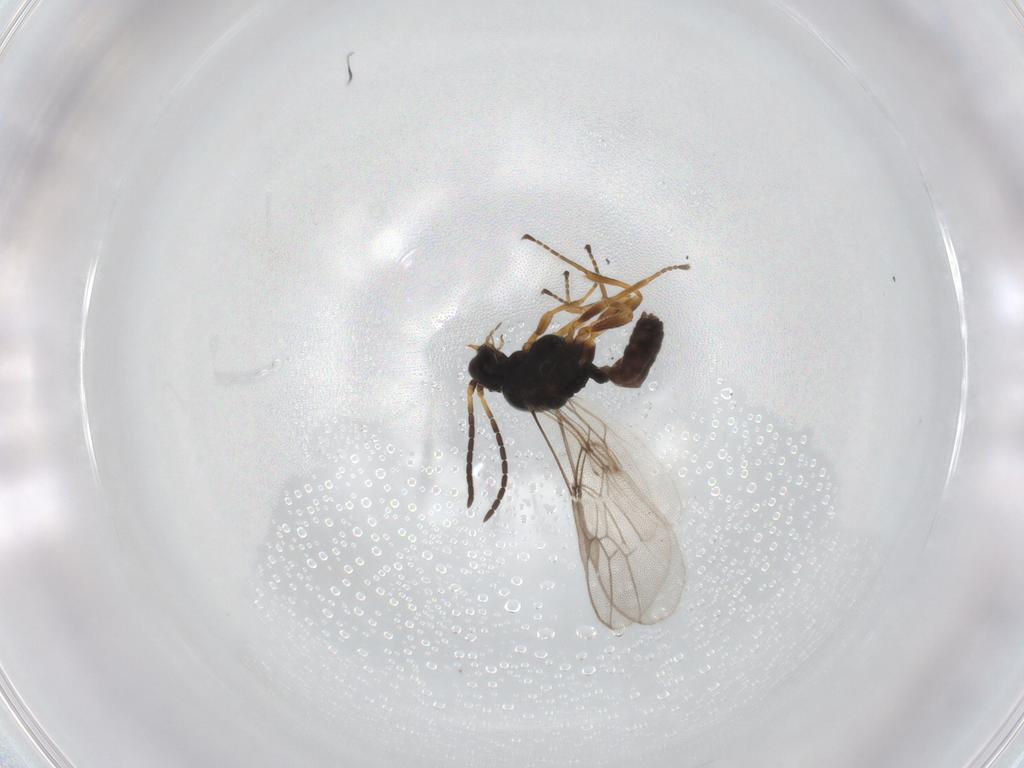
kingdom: Animalia
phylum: Arthropoda
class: Insecta
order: Hymenoptera
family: Braconidae
